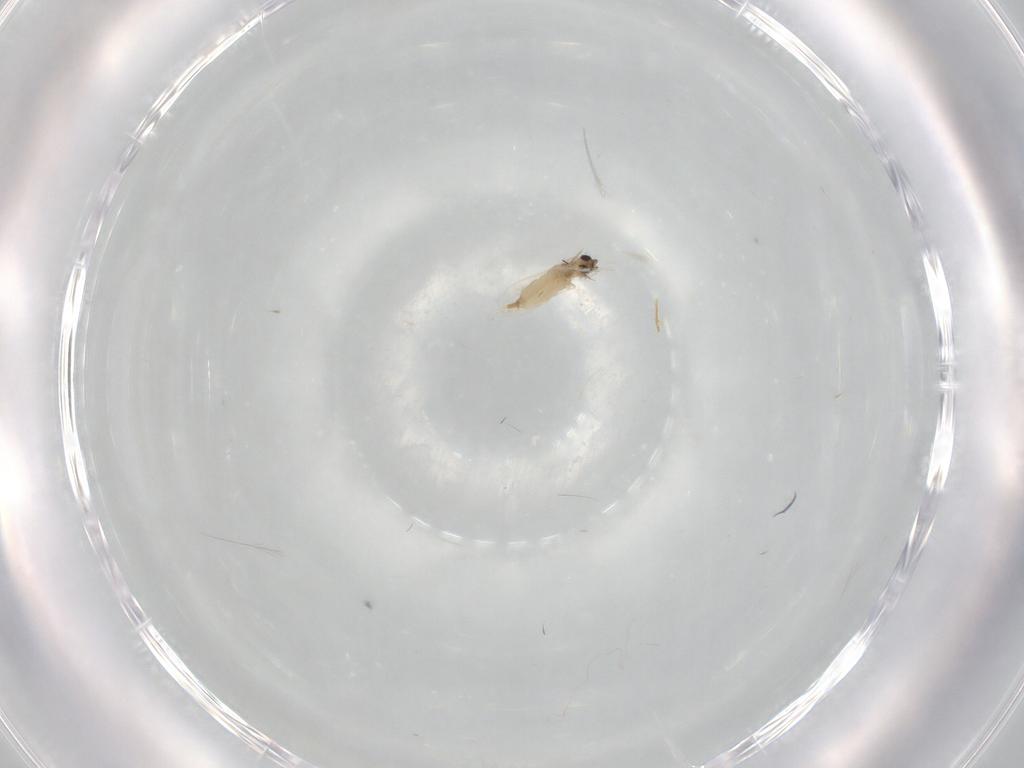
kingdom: Animalia
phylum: Arthropoda
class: Insecta
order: Diptera
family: Tabanidae
